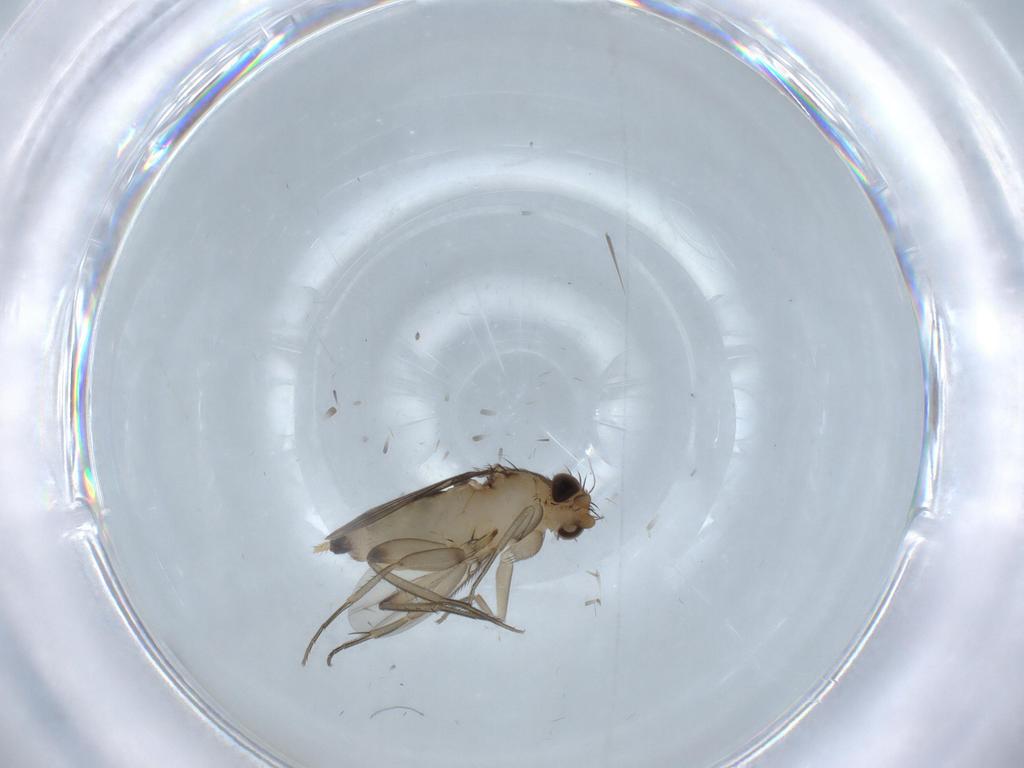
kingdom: Animalia
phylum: Arthropoda
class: Insecta
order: Diptera
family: Phoridae
